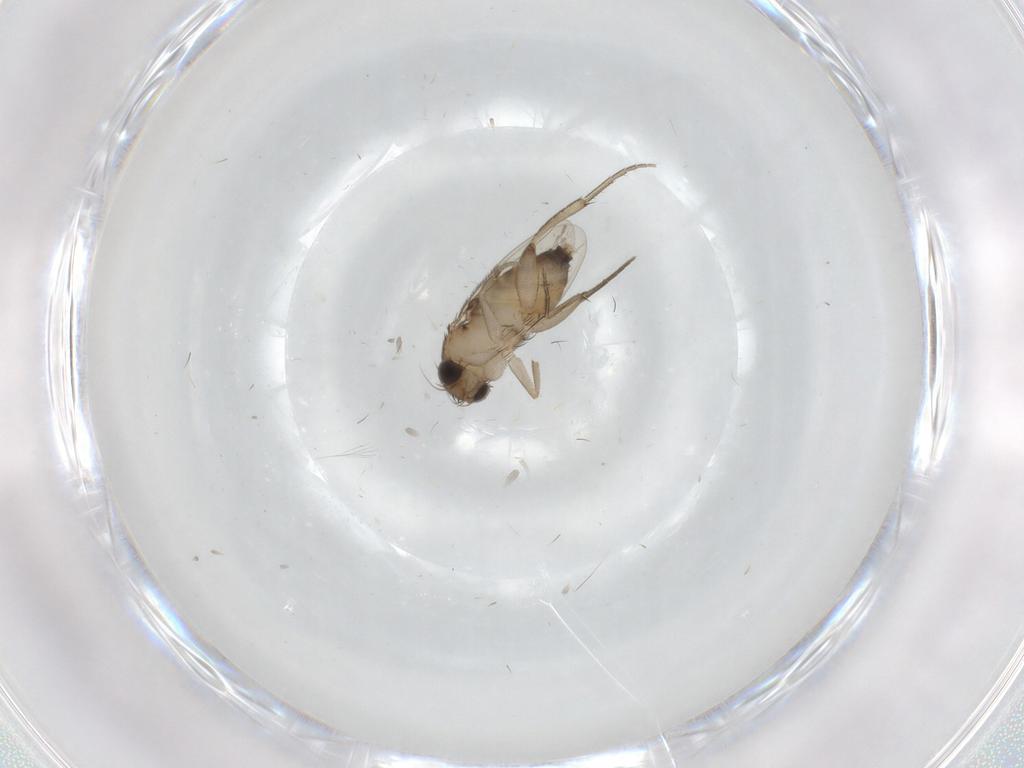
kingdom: Animalia
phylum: Arthropoda
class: Insecta
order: Diptera
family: Phoridae
